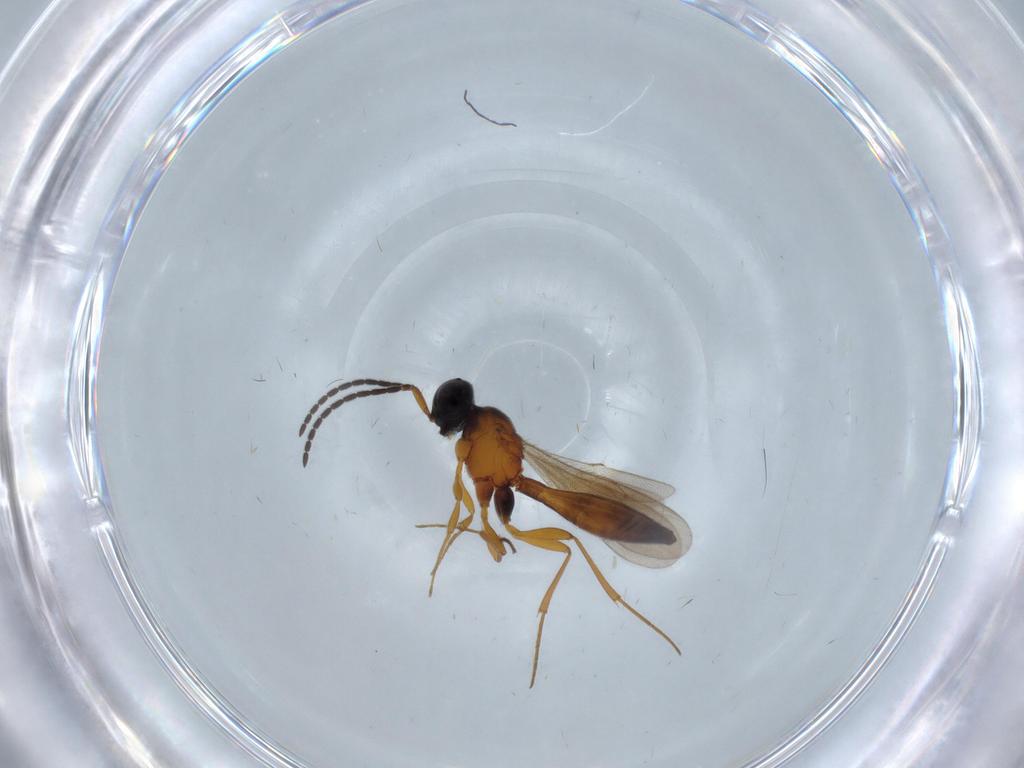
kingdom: Animalia
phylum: Arthropoda
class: Insecta
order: Hymenoptera
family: Scelionidae
